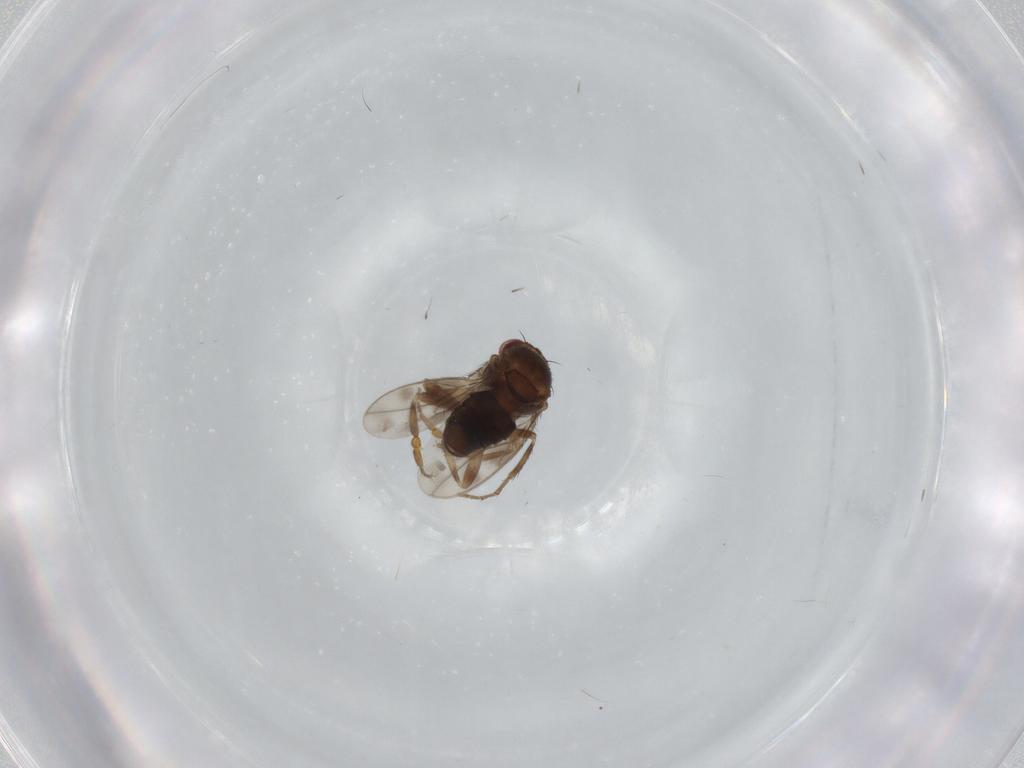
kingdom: Animalia
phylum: Arthropoda
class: Insecta
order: Diptera
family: Sphaeroceridae
